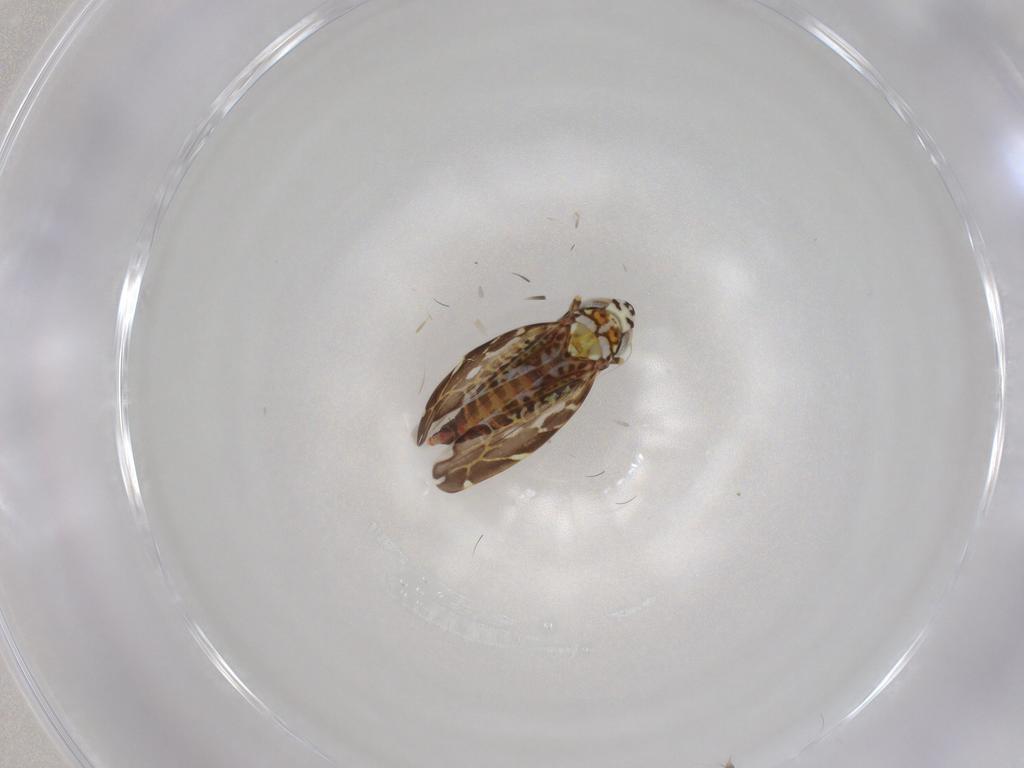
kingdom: Animalia
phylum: Arthropoda
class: Insecta
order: Hemiptera
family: Cicadellidae
